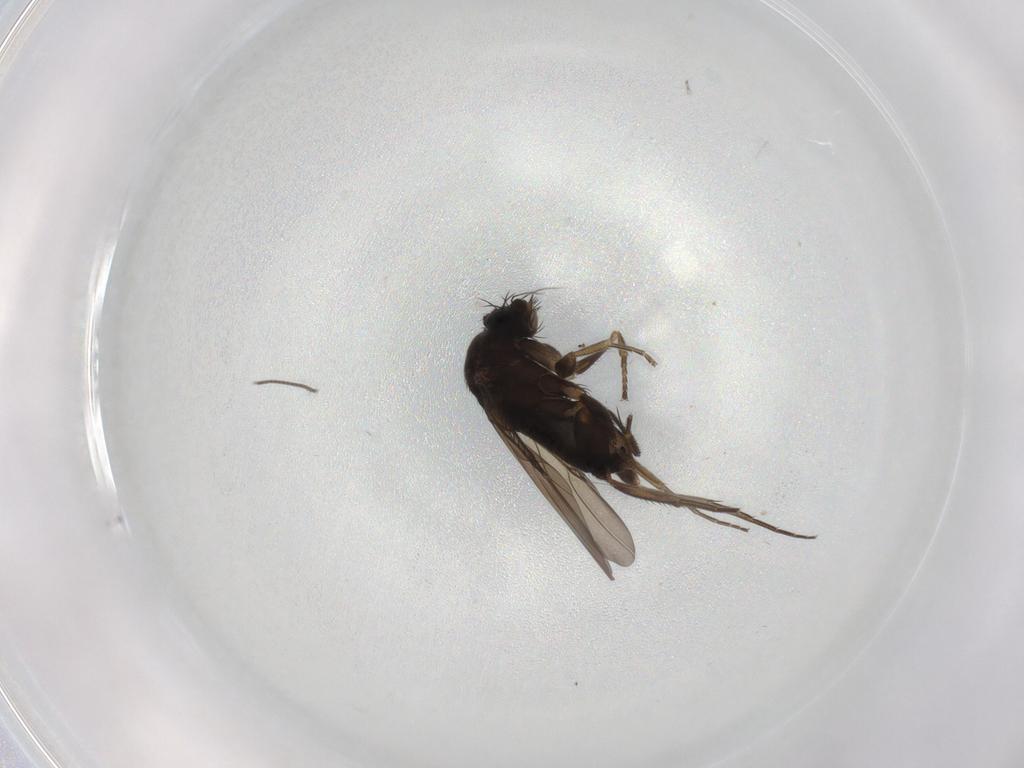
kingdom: Animalia
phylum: Arthropoda
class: Insecta
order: Diptera
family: Phoridae
